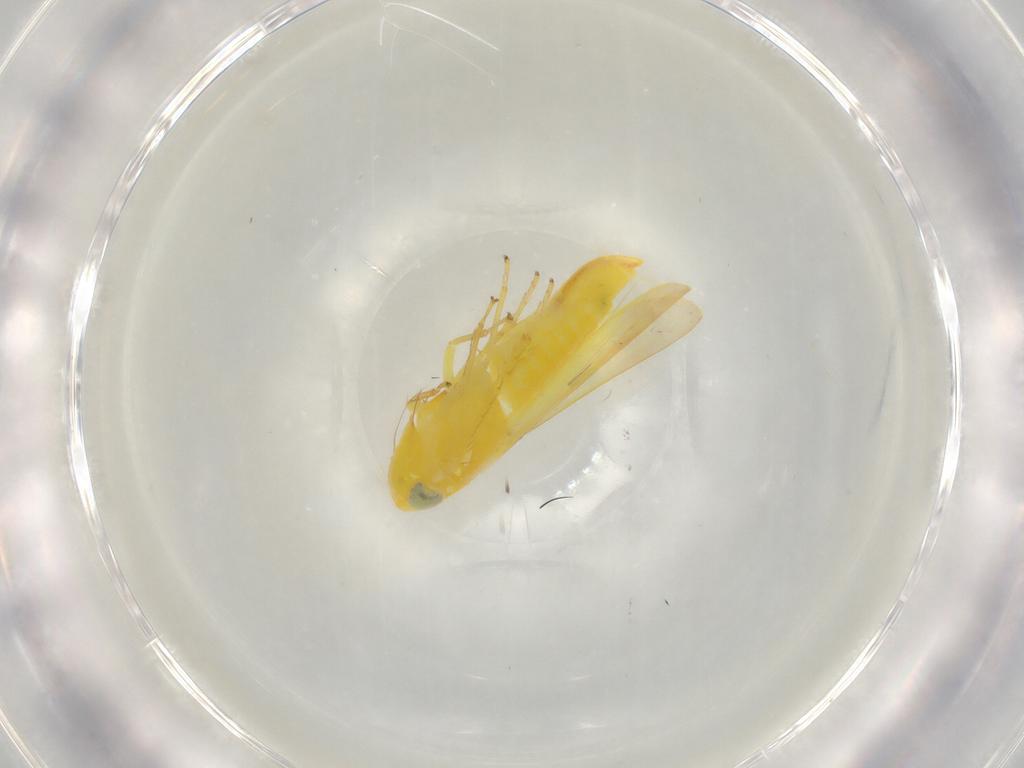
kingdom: Animalia
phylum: Arthropoda
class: Insecta
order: Hemiptera
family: Cicadellidae
